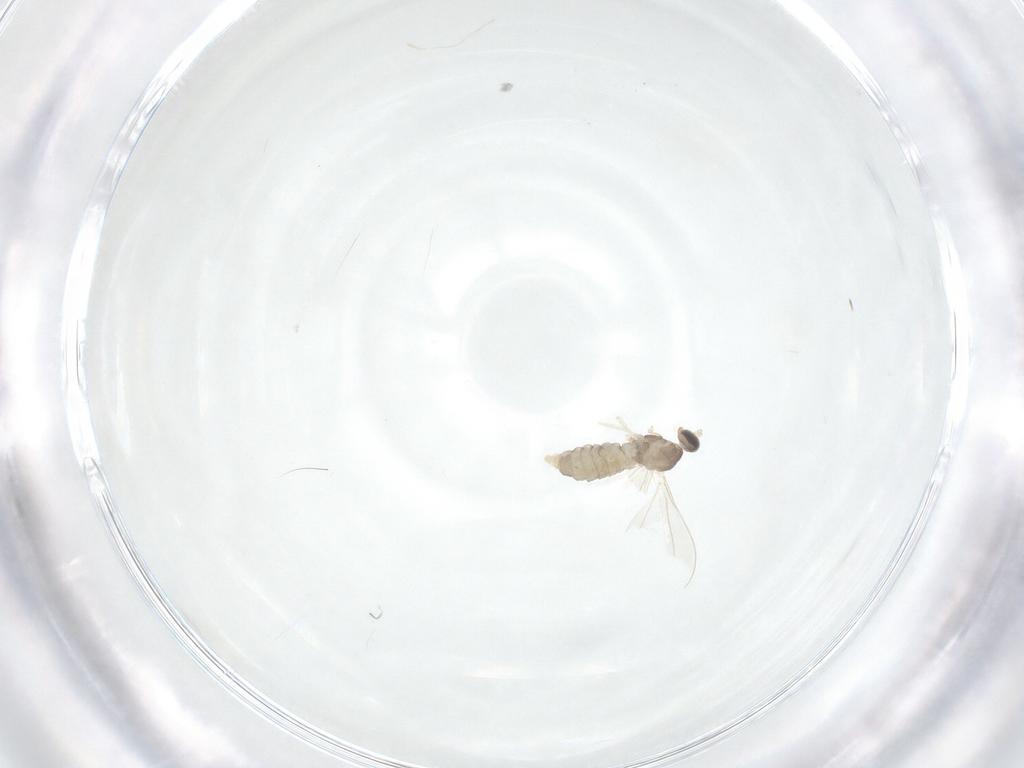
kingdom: Animalia
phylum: Arthropoda
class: Insecta
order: Diptera
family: Cecidomyiidae
